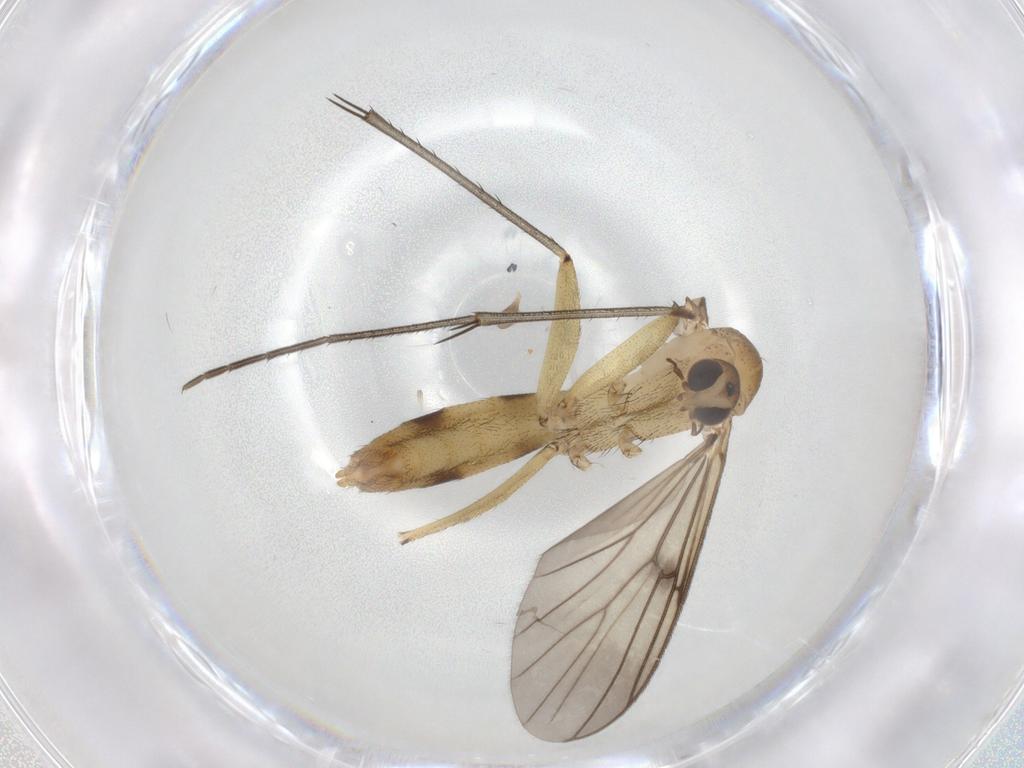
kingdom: Animalia
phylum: Arthropoda
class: Insecta
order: Diptera
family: Mycetophilidae
